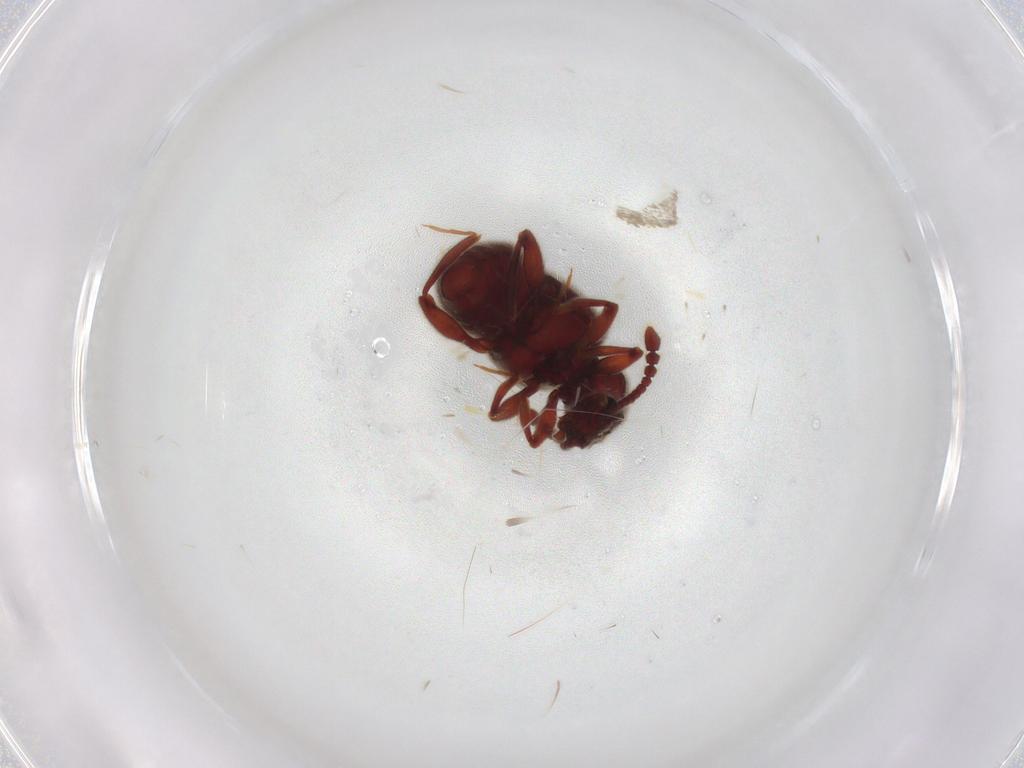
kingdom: Animalia
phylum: Arthropoda
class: Insecta
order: Coleoptera
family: Staphylinidae
